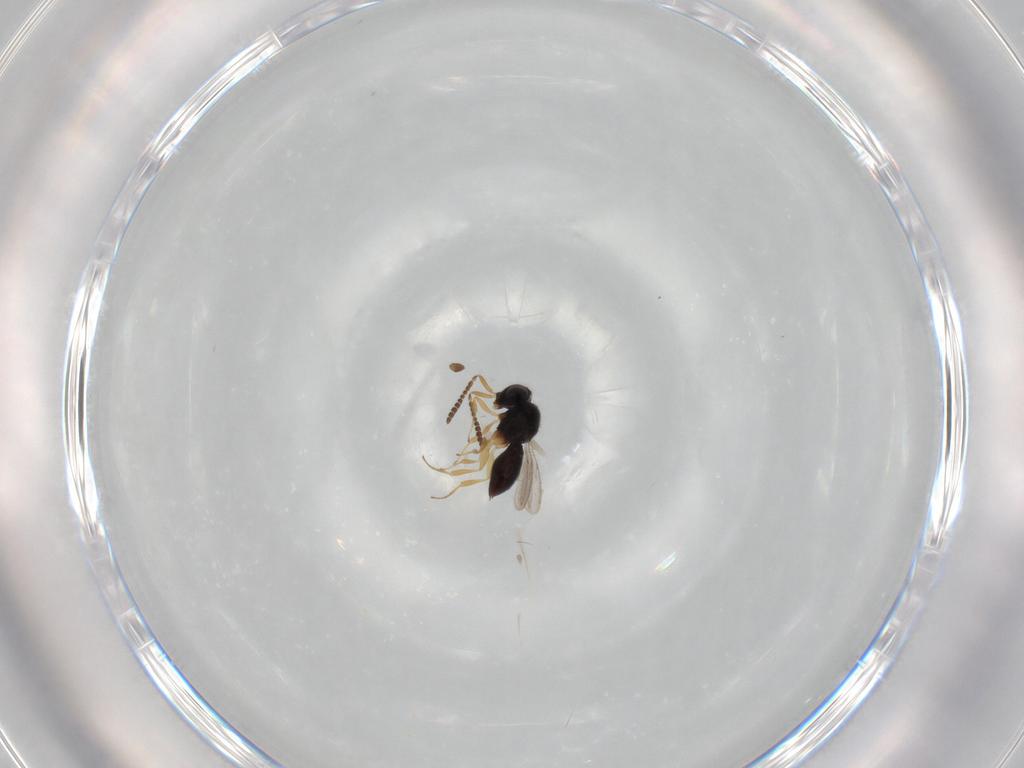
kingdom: Animalia
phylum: Arthropoda
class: Insecta
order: Hymenoptera
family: Scelionidae
